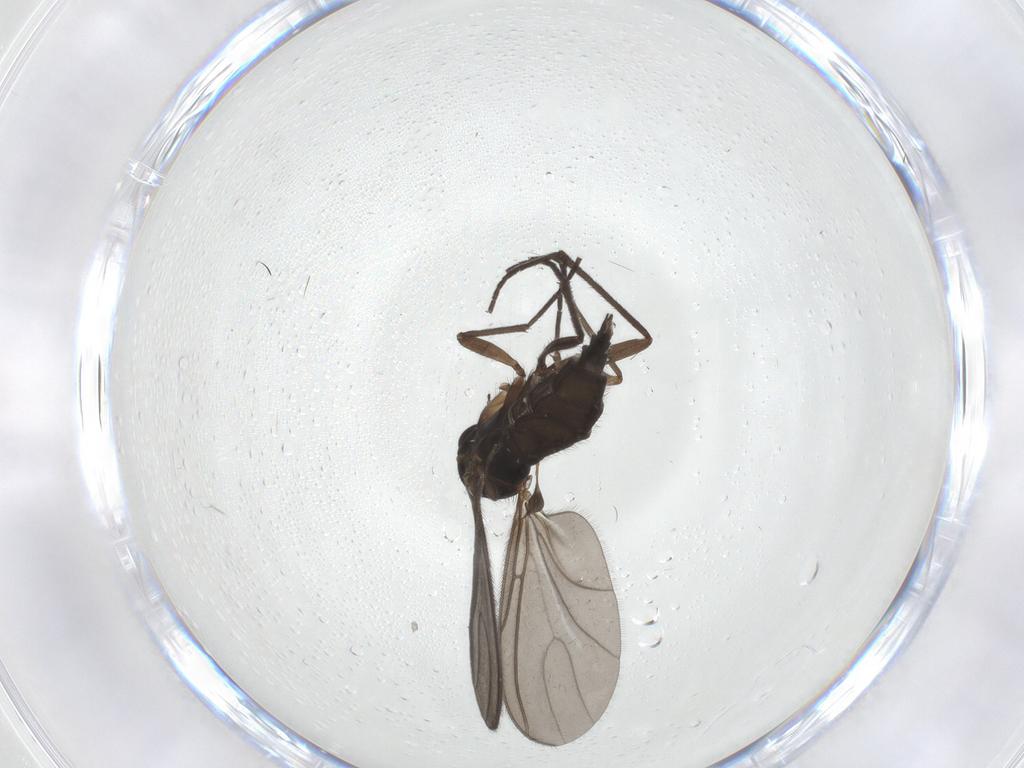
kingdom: Animalia
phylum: Arthropoda
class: Insecta
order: Diptera
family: Sciaridae
